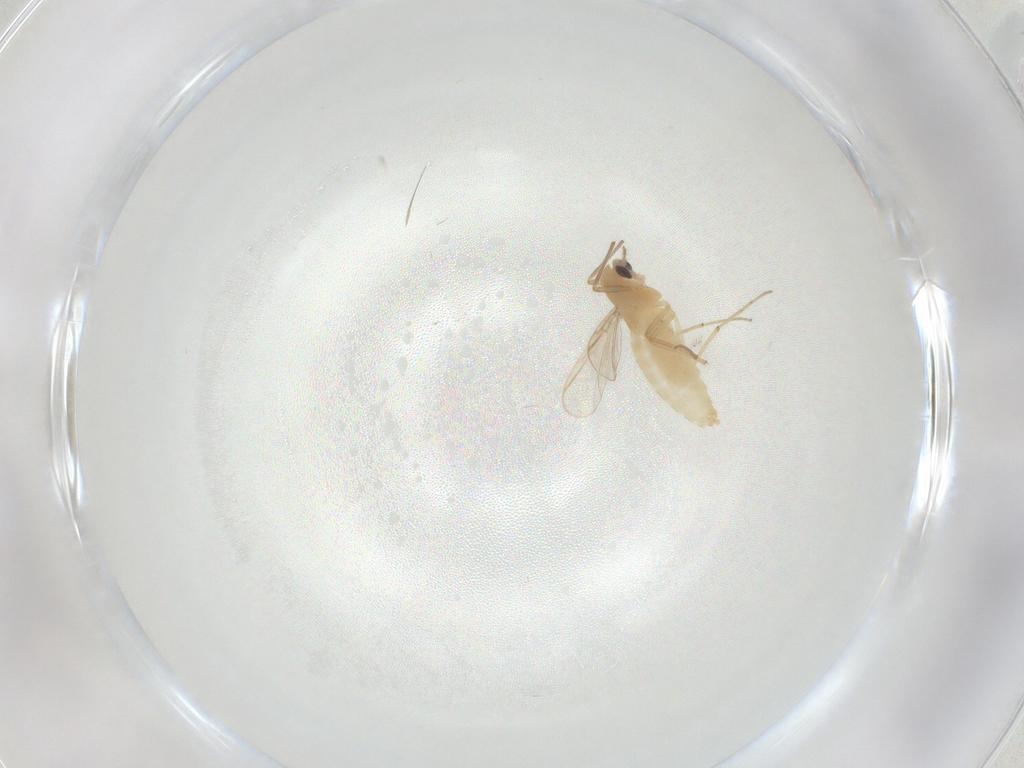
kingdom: Animalia
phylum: Arthropoda
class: Insecta
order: Diptera
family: Chironomidae
